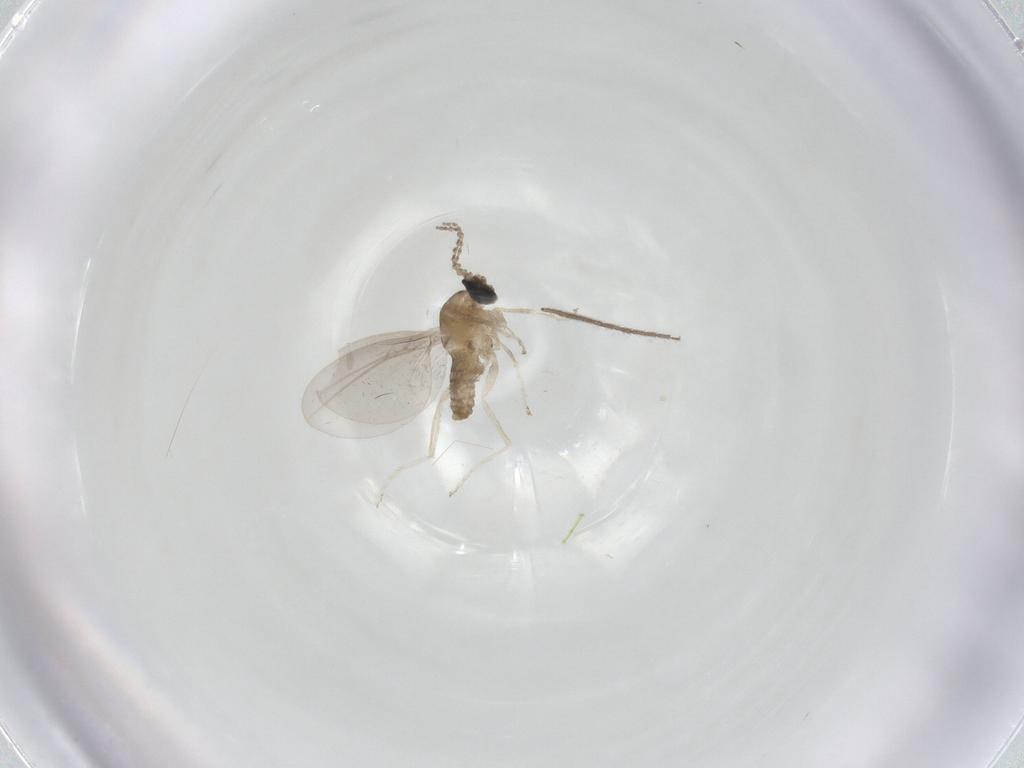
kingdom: Animalia
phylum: Arthropoda
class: Insecta
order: Diptera
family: Cecidomyiidae
